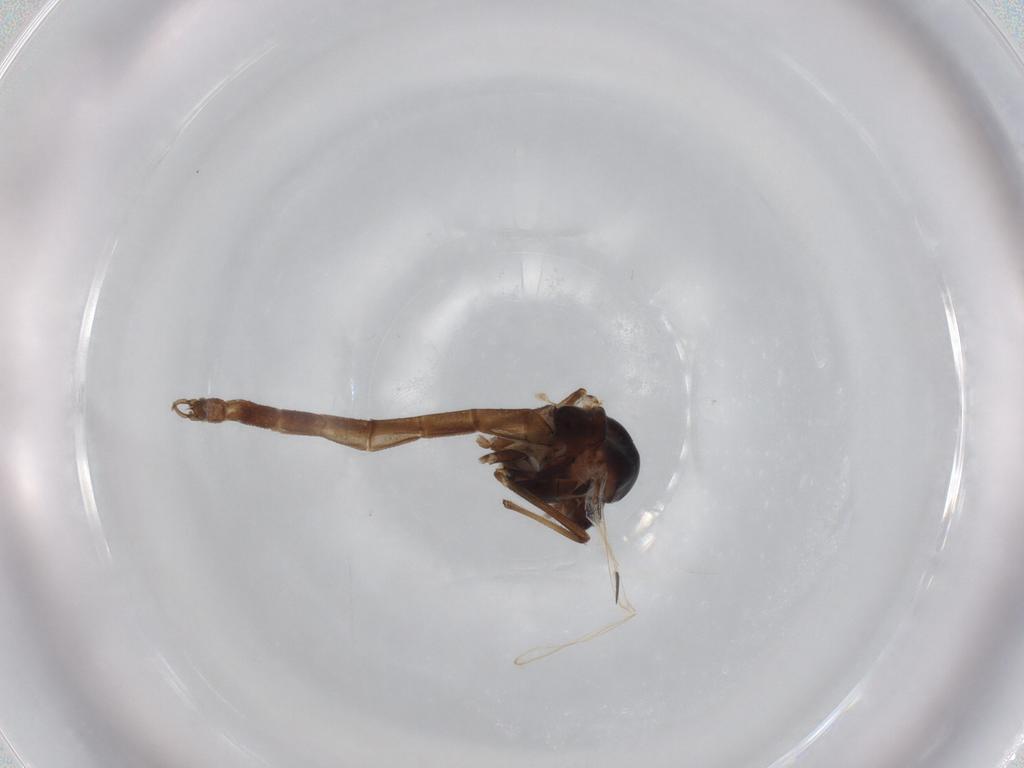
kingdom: Animalia
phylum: Arthropoda
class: Insecta
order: Diptera
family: Chironomidae
